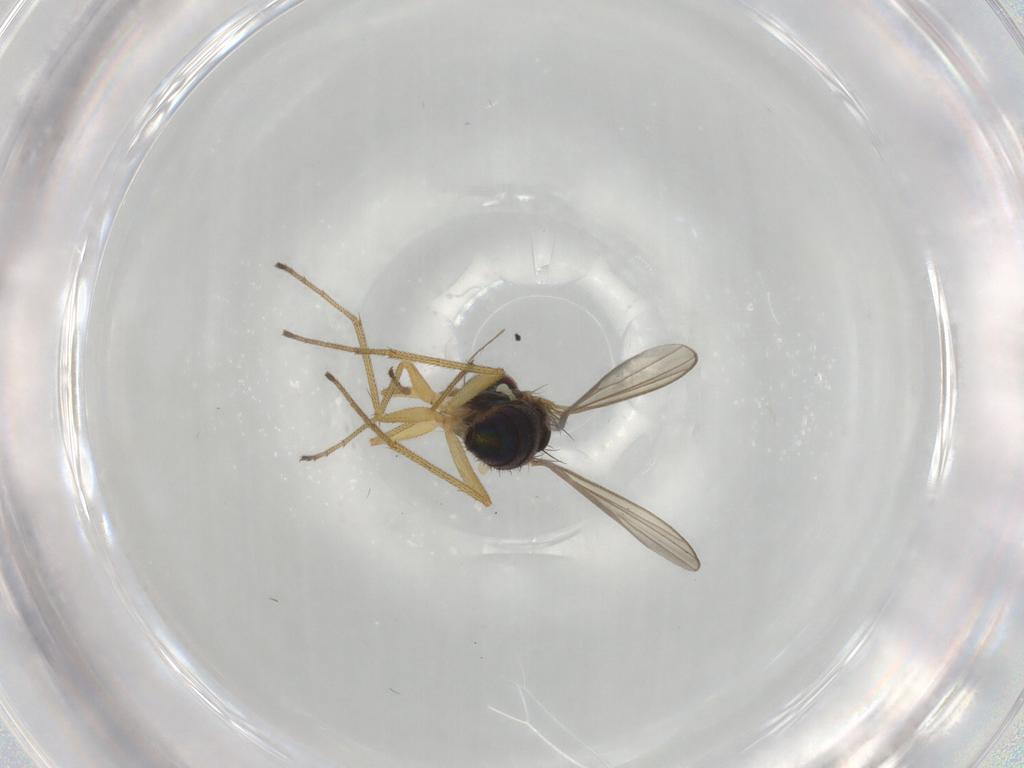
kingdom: Animalia
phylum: Arthropoda
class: Insecta
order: Diptera
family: Dolichopodidae
